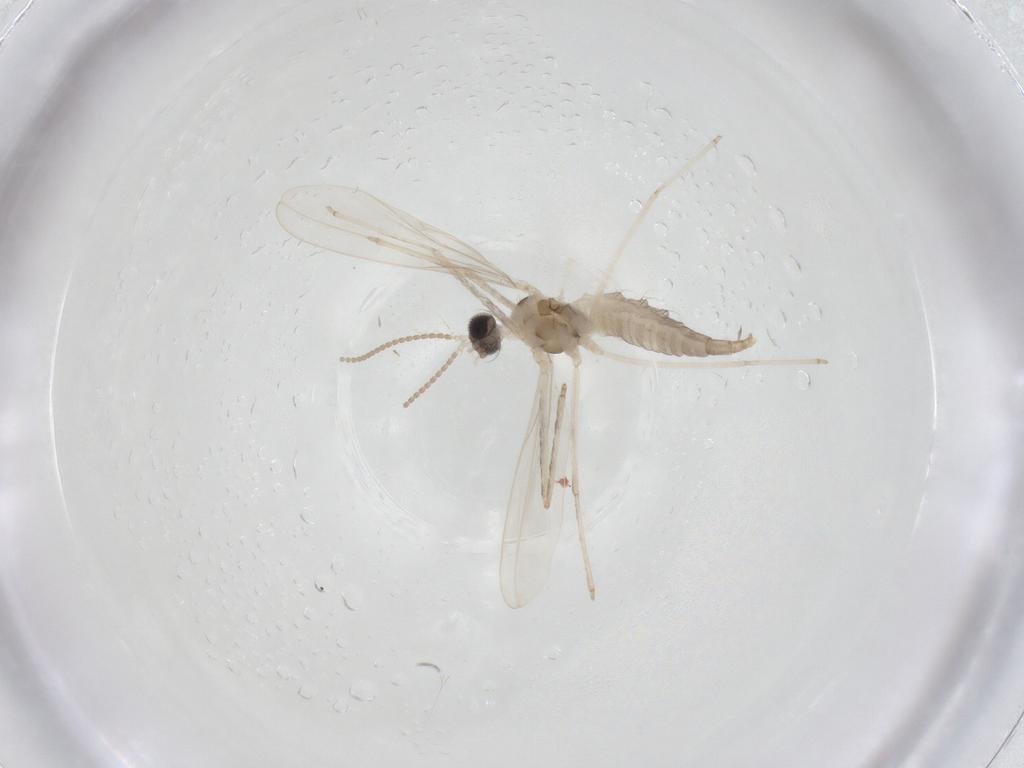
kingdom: Animalia
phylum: Arthropoda
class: Insecta
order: Diptera
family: Cecidomyiidae
